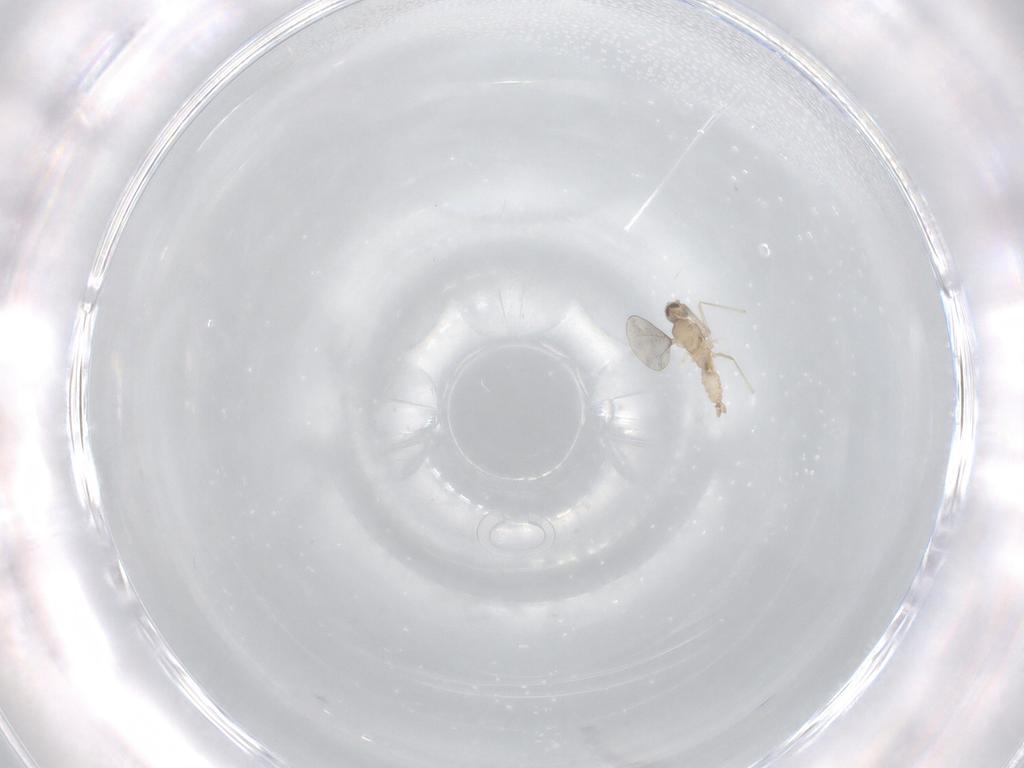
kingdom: Animalia
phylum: Arthropoda
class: Insecta
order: Diptera
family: Cecidomyiidae
